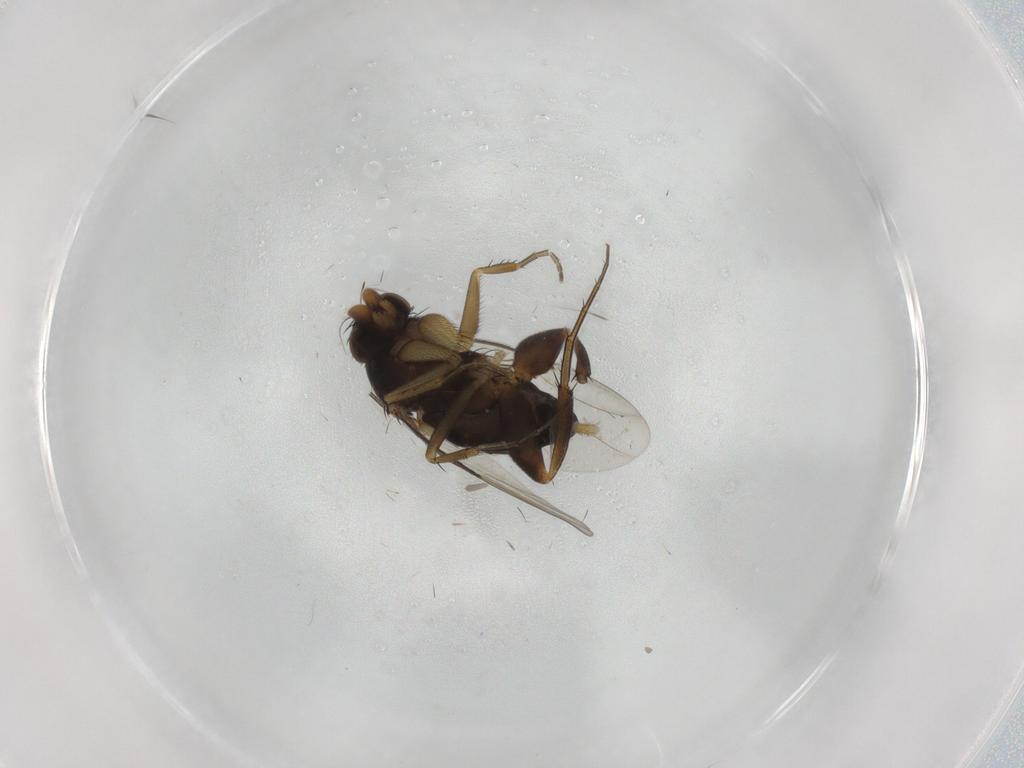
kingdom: Animalia
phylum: Arthropoda
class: Insecta
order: Diptera
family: Phoridae
